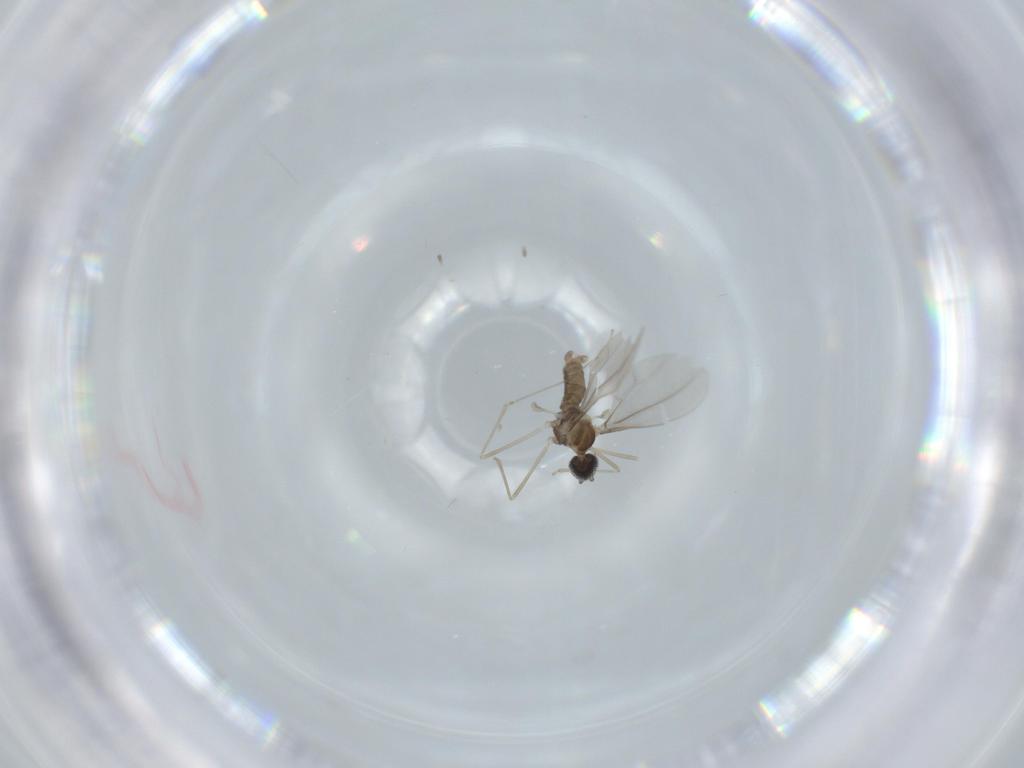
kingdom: Animalia
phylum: Arthropoda
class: Insecta
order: Diptera
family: Cecidomyiidae
